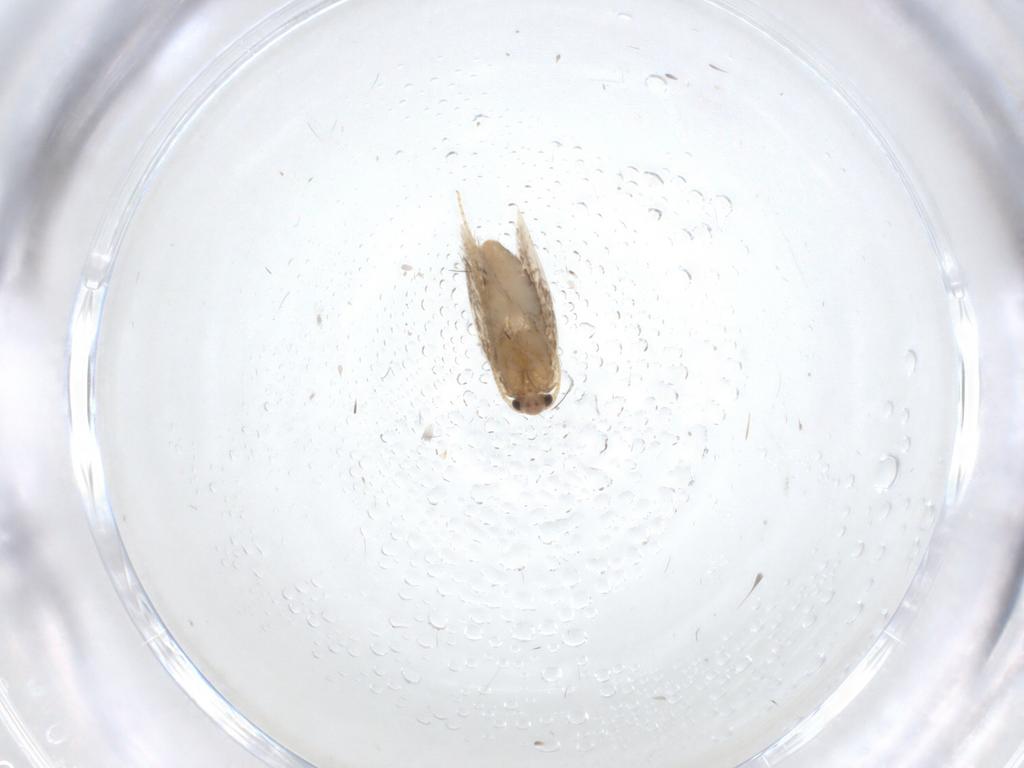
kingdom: Animalia
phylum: Arthropoda
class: Insecta
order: Lepidoptera
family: Nepticulidae
